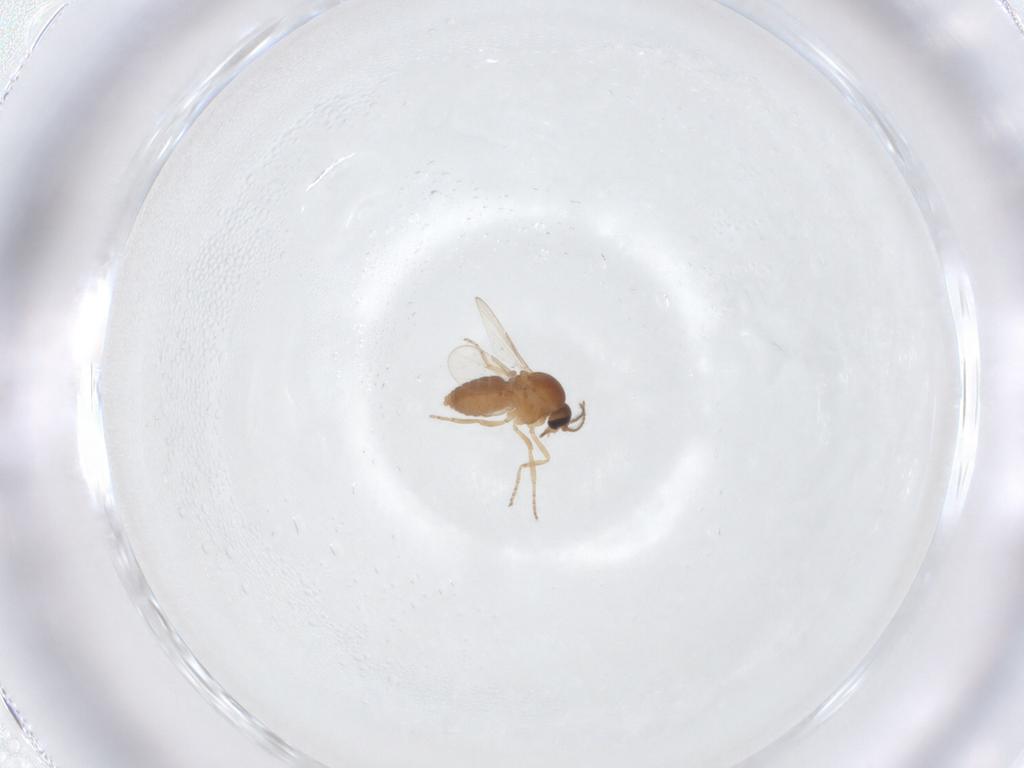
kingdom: Animalia
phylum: Arthropoda
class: Insecta
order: Diptera
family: Ceratopogonidae
